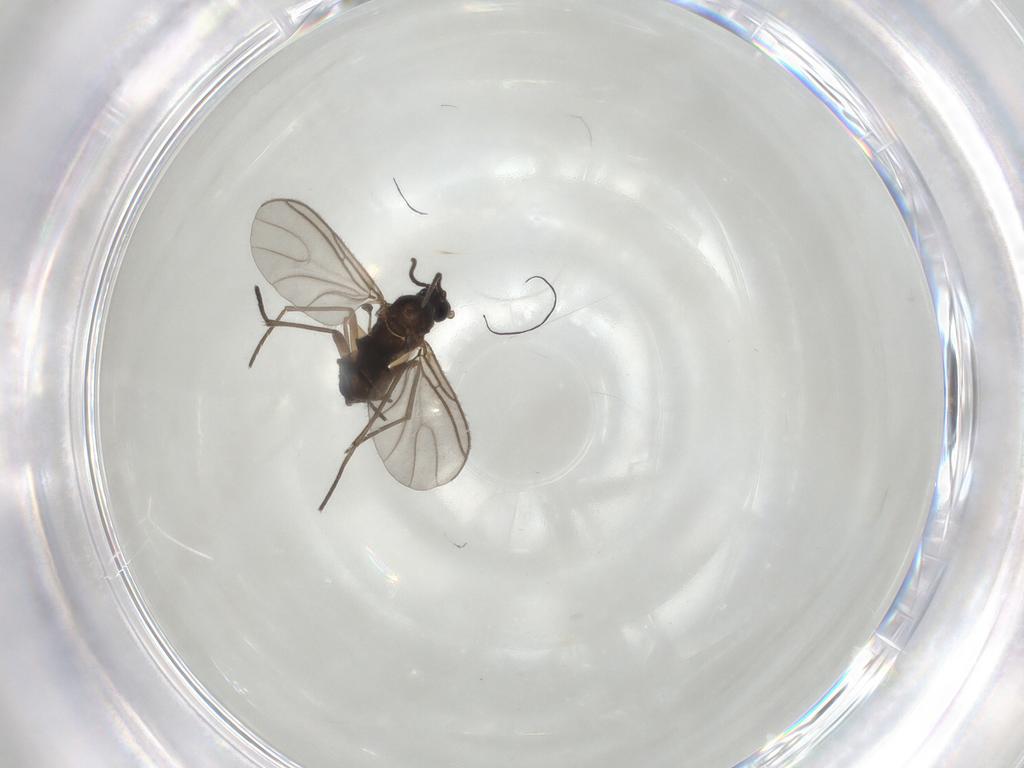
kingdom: Animalia
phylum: Arthropoda
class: Insecta
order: Diptera
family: Sciaridae
